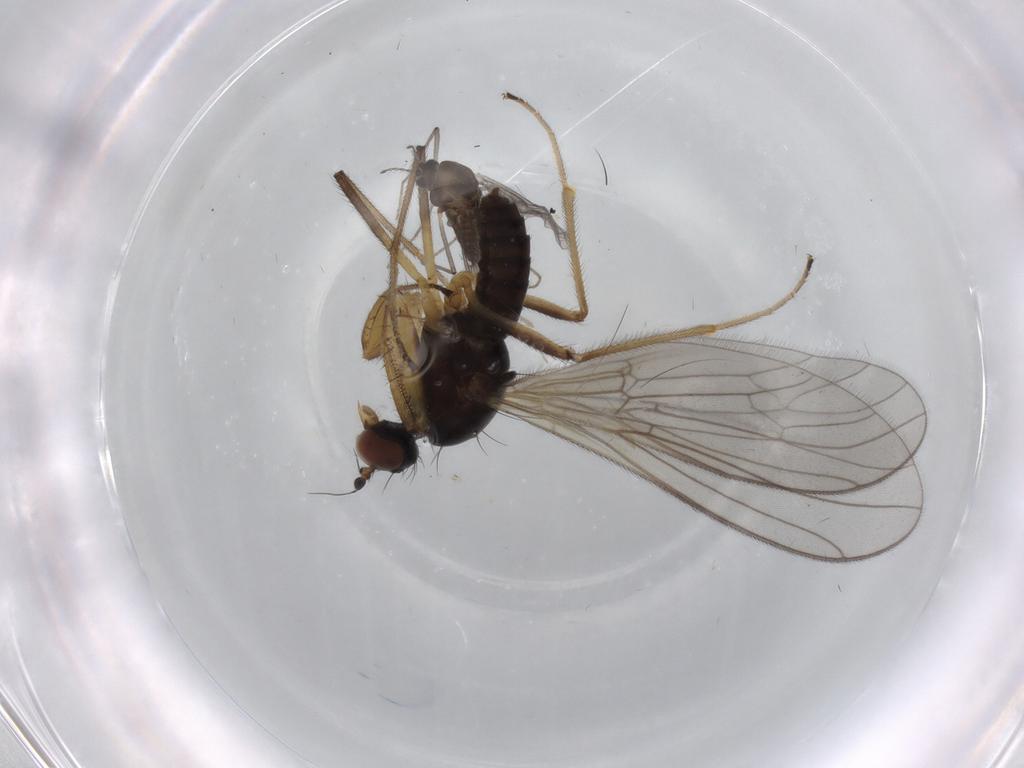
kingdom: Animalia
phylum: Arthropoda
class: Insecta
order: Diptera
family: Empididae
